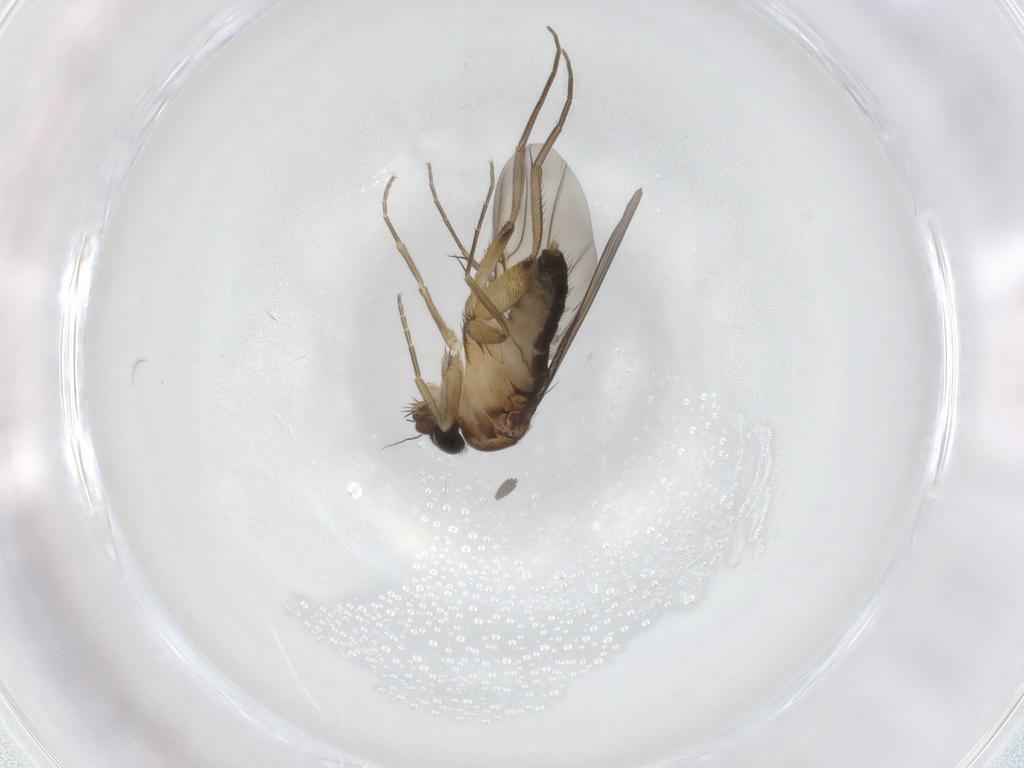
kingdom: Animalia
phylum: Arthropoda
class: Insecta
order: Diptera
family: Phoridae
